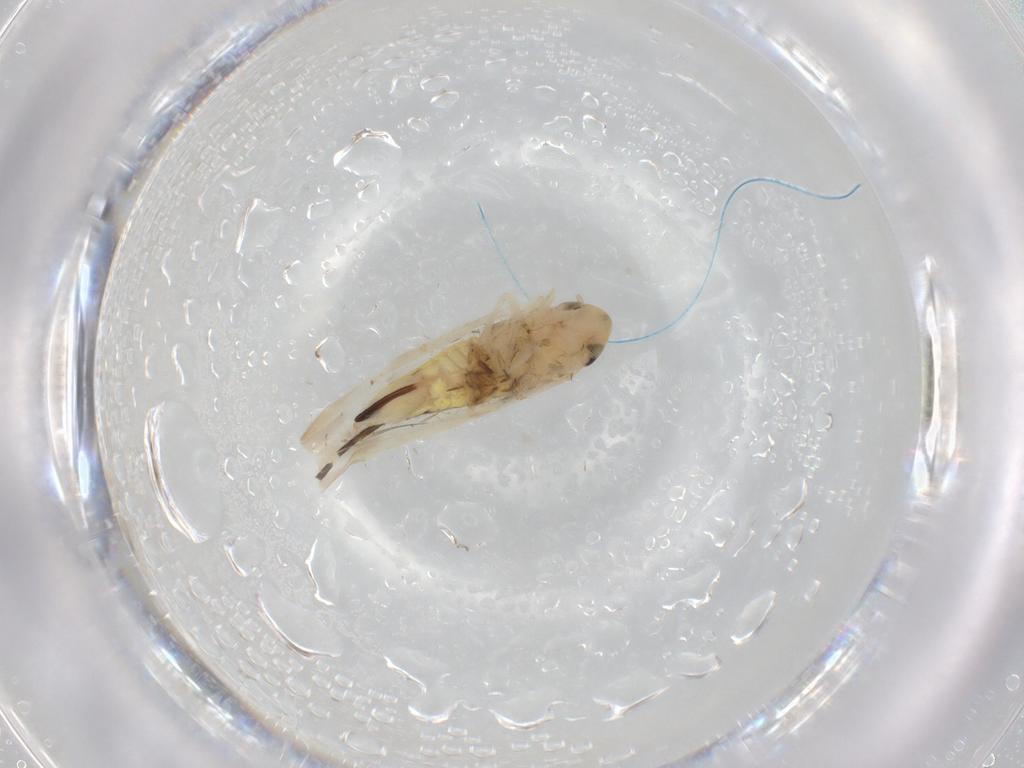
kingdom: Animalia
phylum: Arthropoda
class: Insecta
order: Hemiptera
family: Cicadellidae
